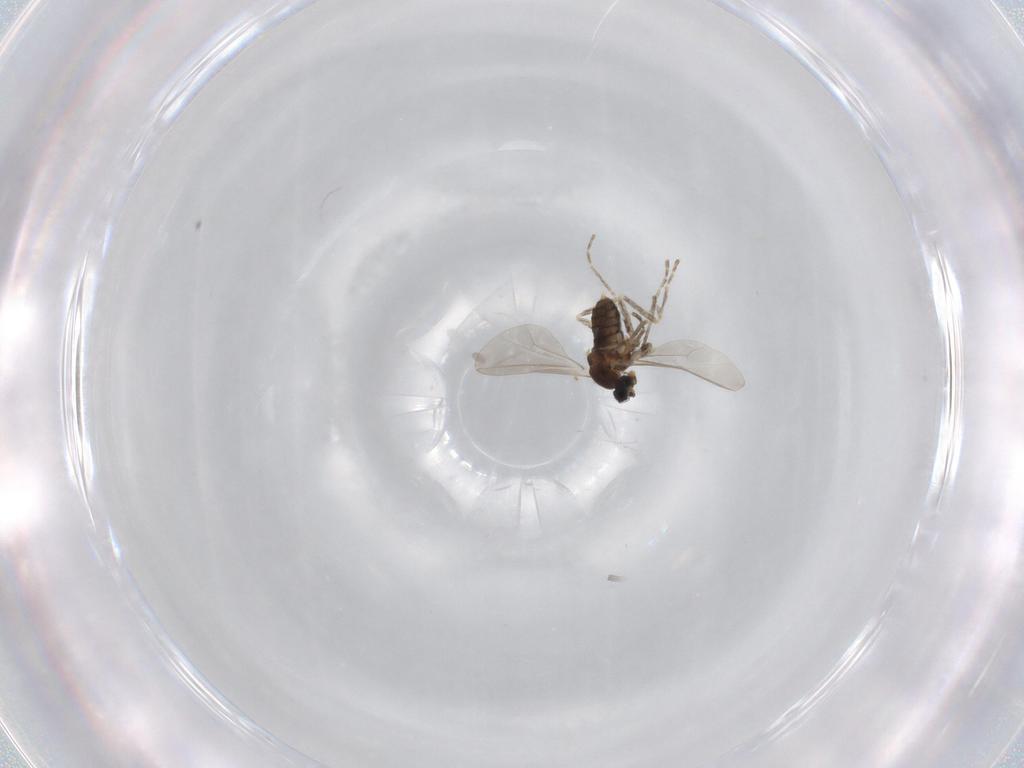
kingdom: Animalia
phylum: Arthropoda
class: Insecta
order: Diptera
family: Cecidomyiidae
